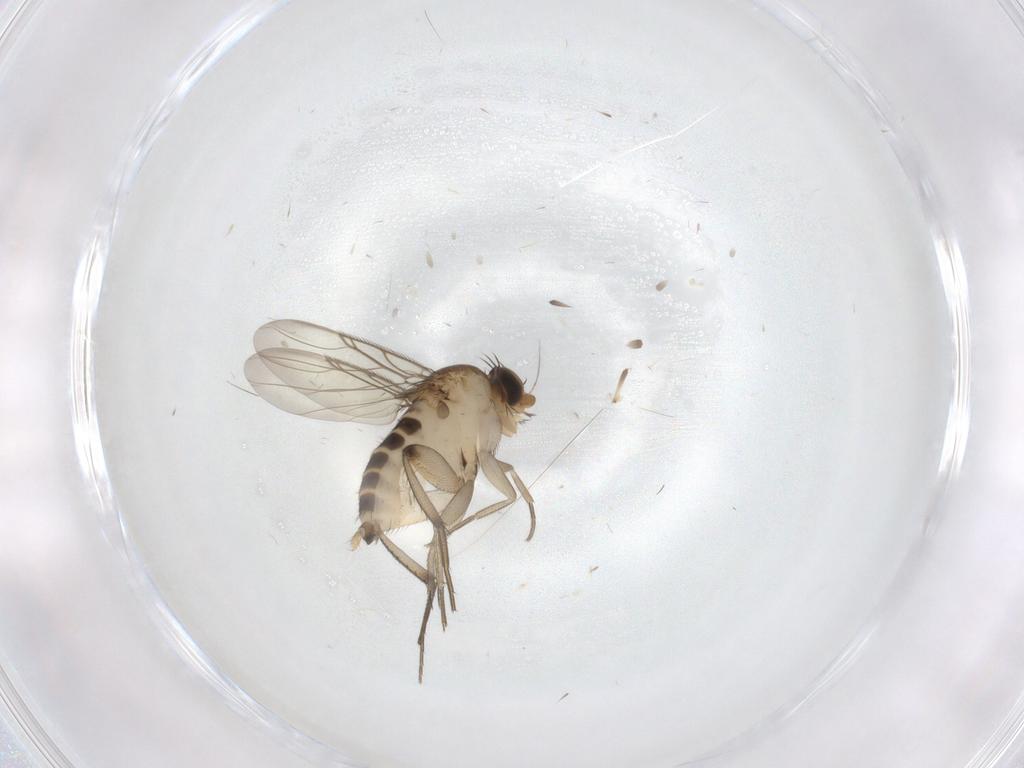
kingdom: Animalia
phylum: Arthropoda
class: Insecta
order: Diptera
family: Phoridae
